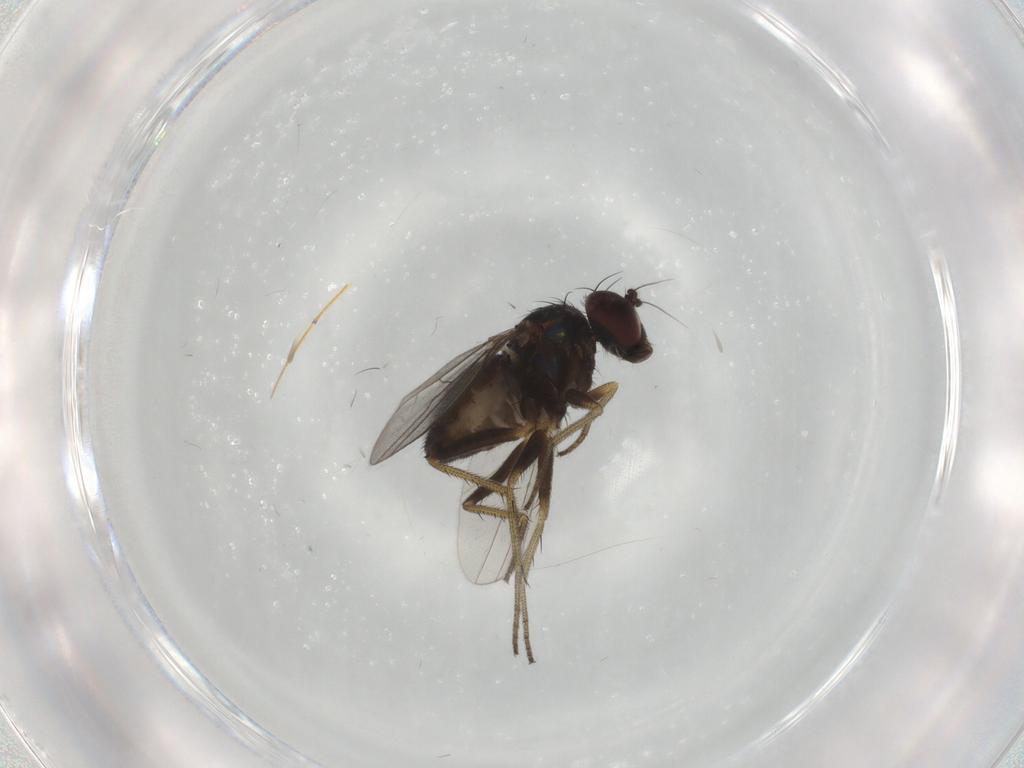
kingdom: Animalia
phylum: Arthropoda
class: Insecta
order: Diptera
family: Dolichopodidae
